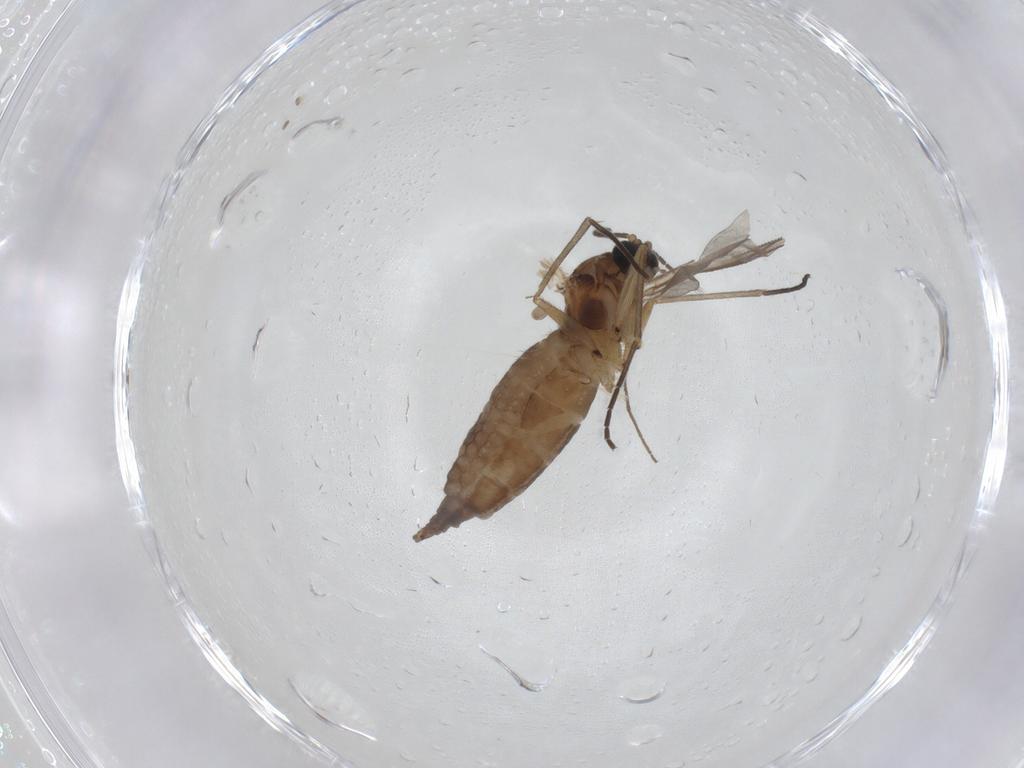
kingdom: Animalia
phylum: Arthropoda
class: Insecta
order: Diptera
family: Sciaridae
